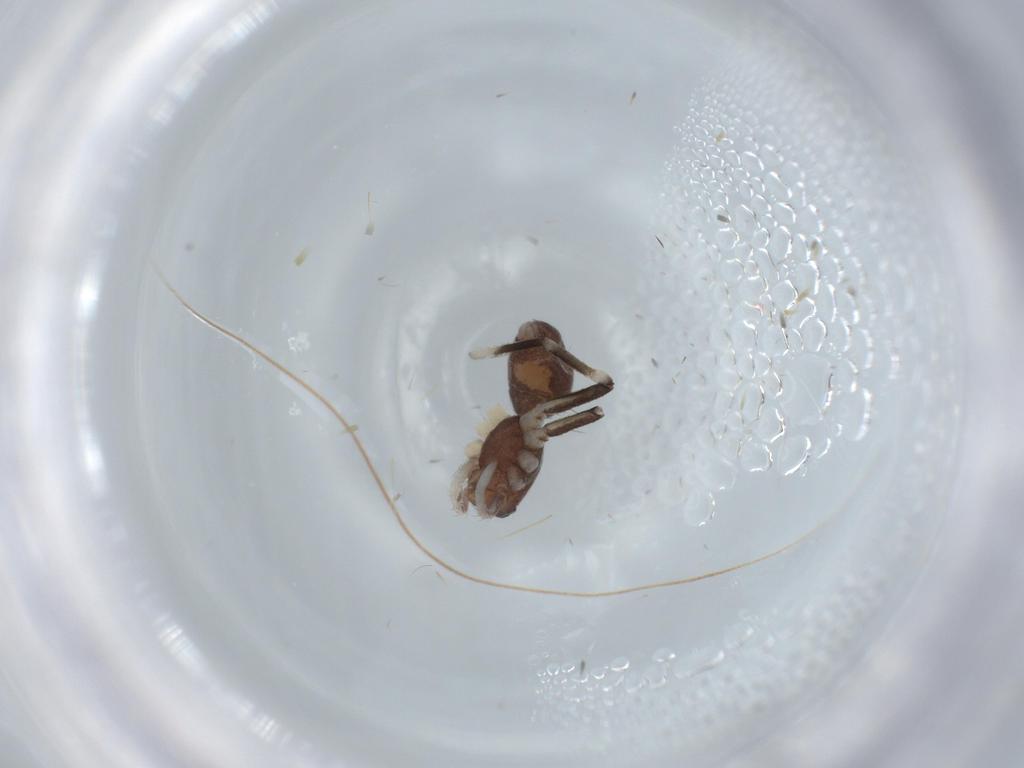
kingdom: Animalia
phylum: Arthropoda
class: Arachnida
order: Araneae
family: Corinnidae
